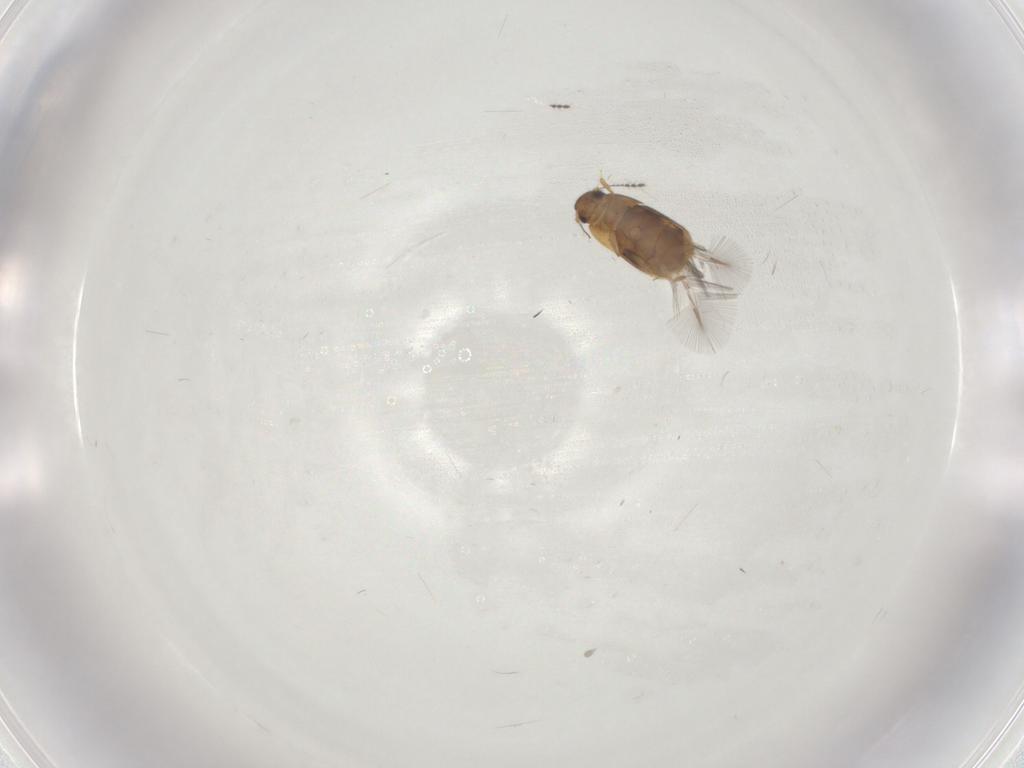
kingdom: Animalia
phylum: Arthropoda
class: Insecta
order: Coleoptera
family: Ptiliidae
